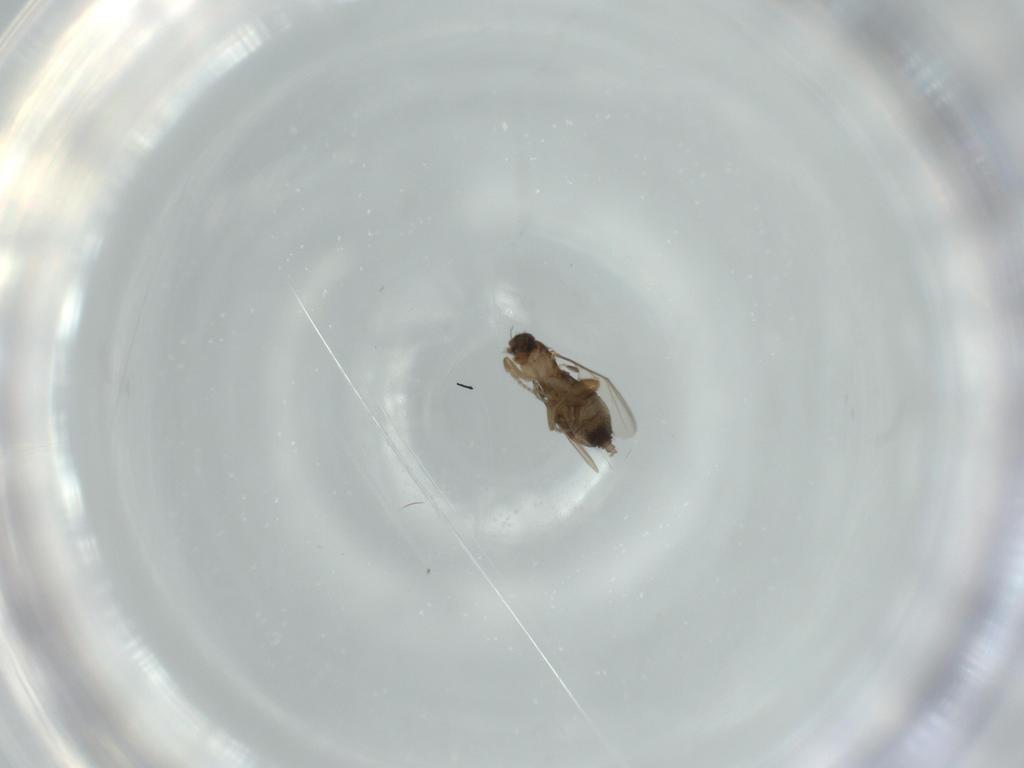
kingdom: Animalia
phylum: Arthropoda
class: Insecta
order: Diptera
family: Phoridae
